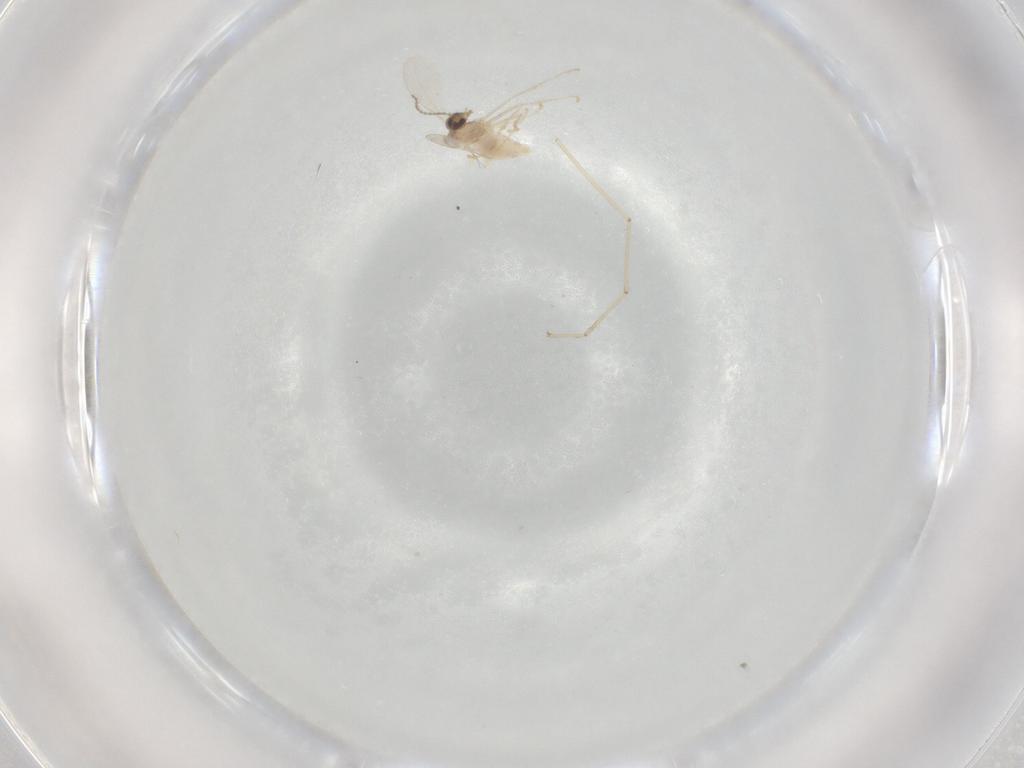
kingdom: Animalia
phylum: Arthropoda
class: Insecta
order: Diptera
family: Cecidomyiidae
